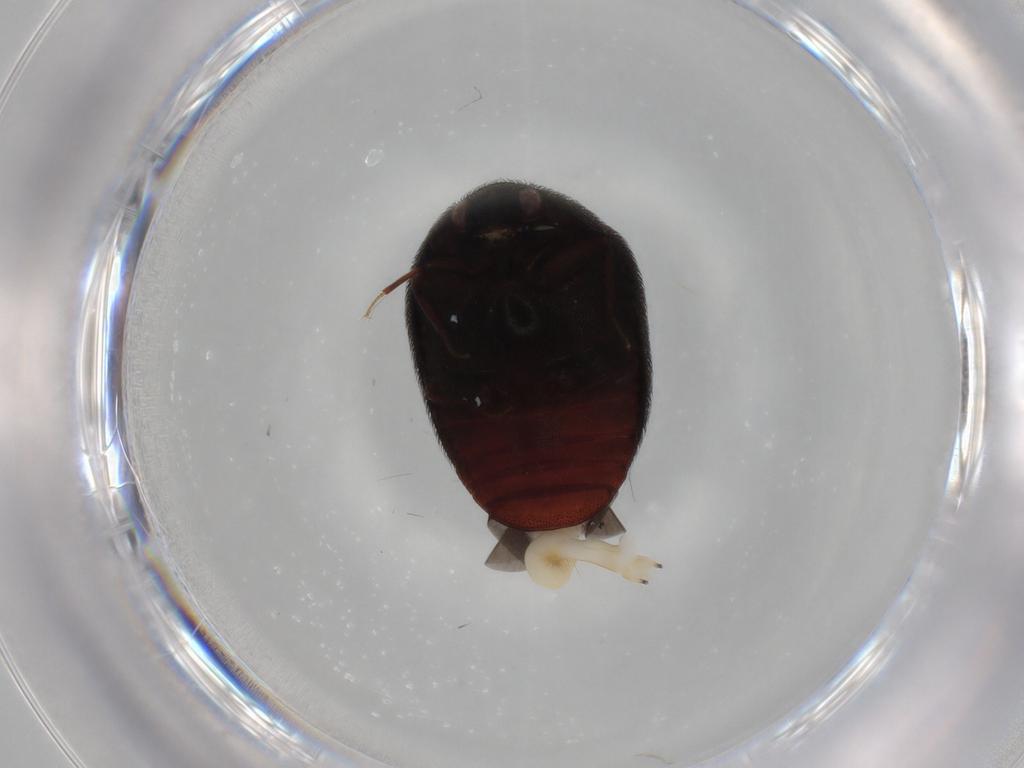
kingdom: Animalia
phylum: Arthropoda
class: Insecta
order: Coleoptera
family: Dermestidae
